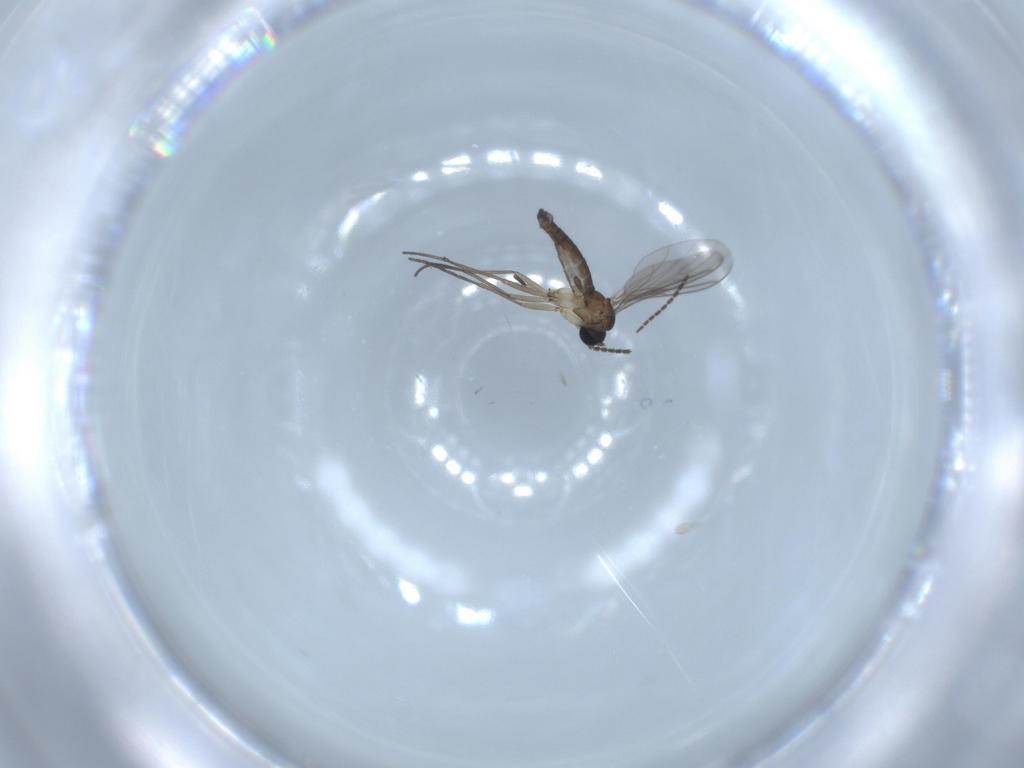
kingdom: Animalia
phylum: Arthropoda
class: Insecta
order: Diptera
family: Sciaridae
